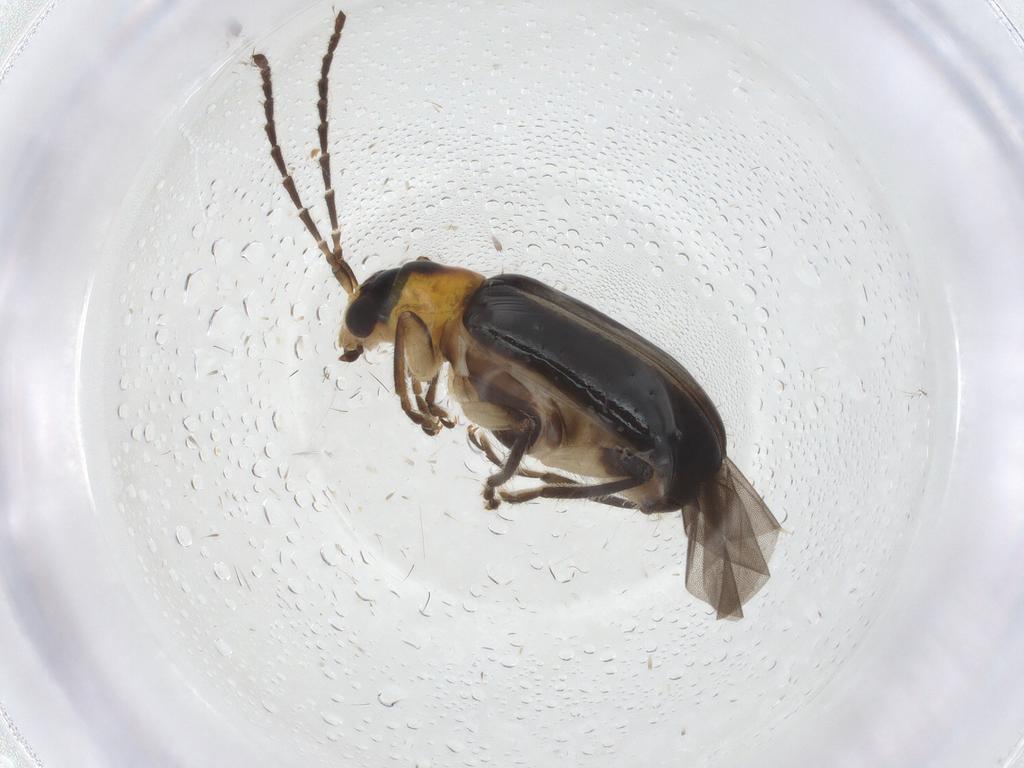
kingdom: Animalia
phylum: Arthropoda
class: Insecta
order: Coleoptera
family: Chrysomelidae
